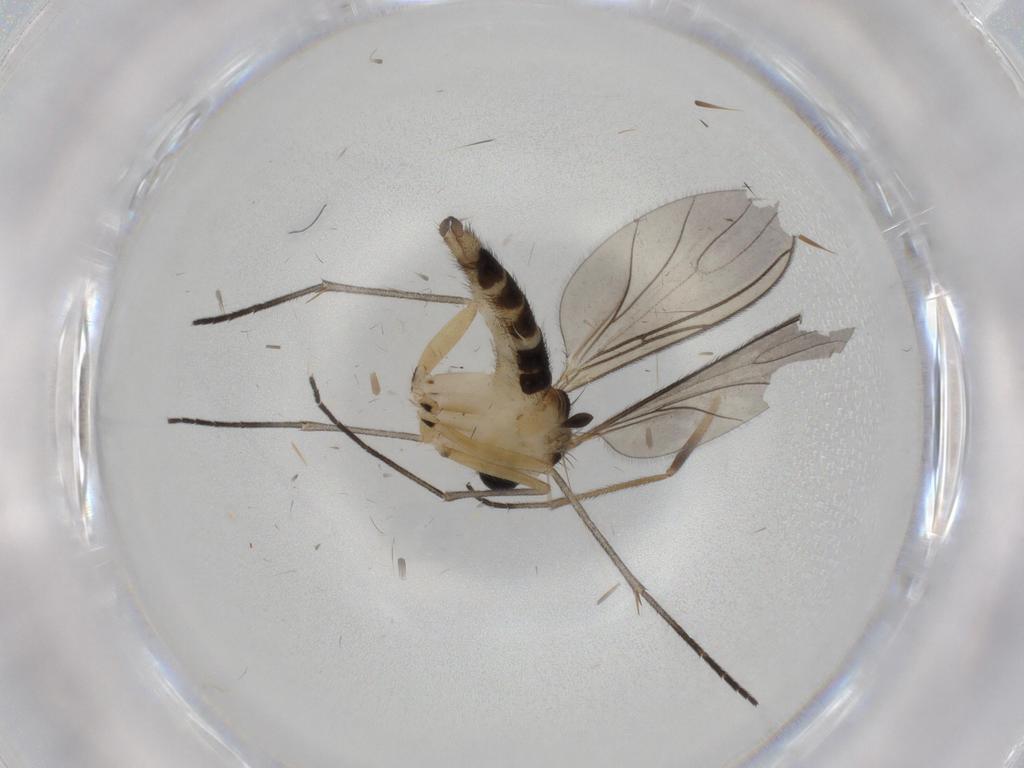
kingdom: Animalia
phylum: Arthropoda
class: Insecta
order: Diptera
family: Sciaridae
